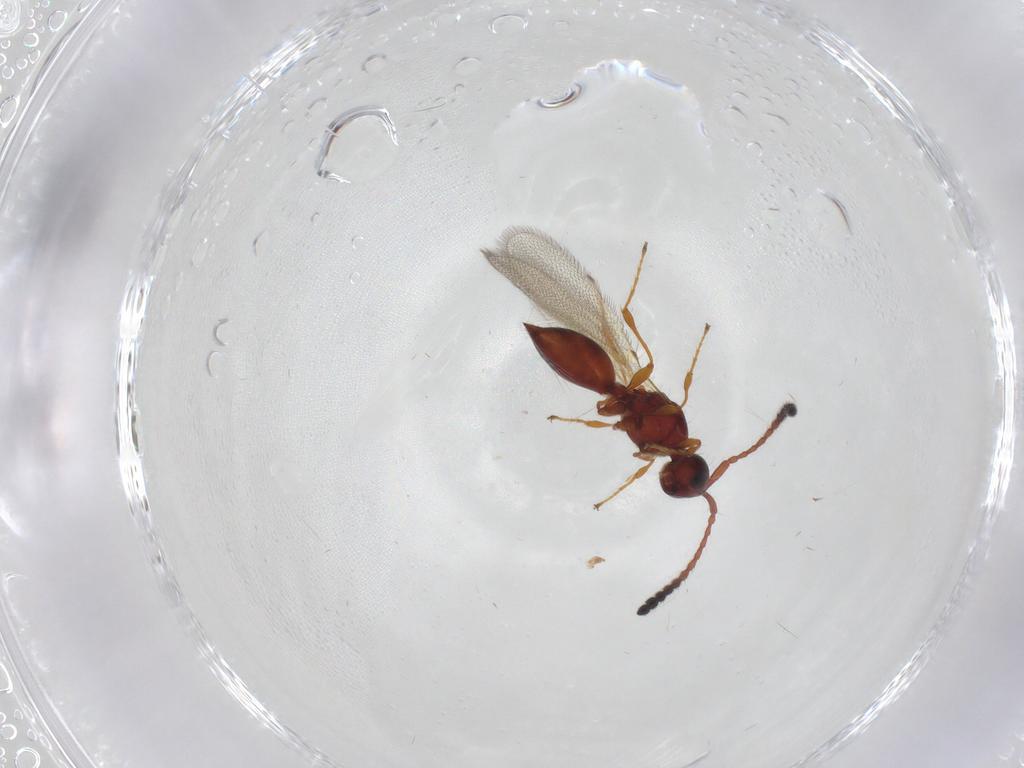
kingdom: Animalia
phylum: Arthropoda
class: Insecta
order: Hymenoptera
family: Diapriidae
